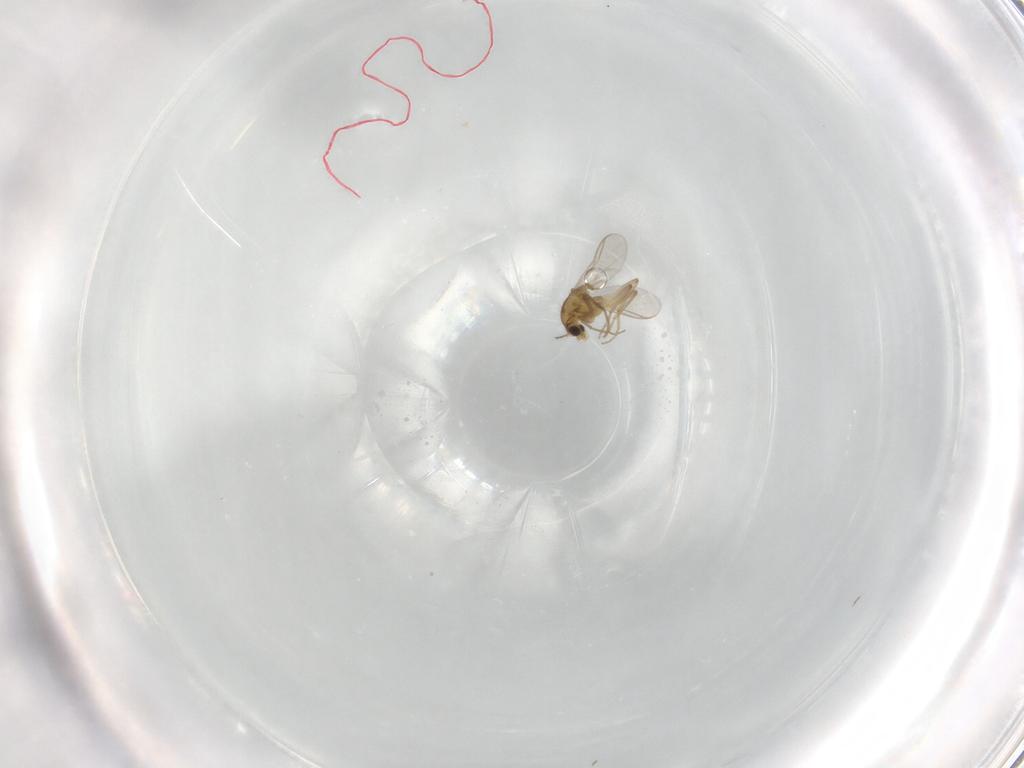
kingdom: Animalia
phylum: Arthropoda
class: Insecta
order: Diptera
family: Chironomidae
